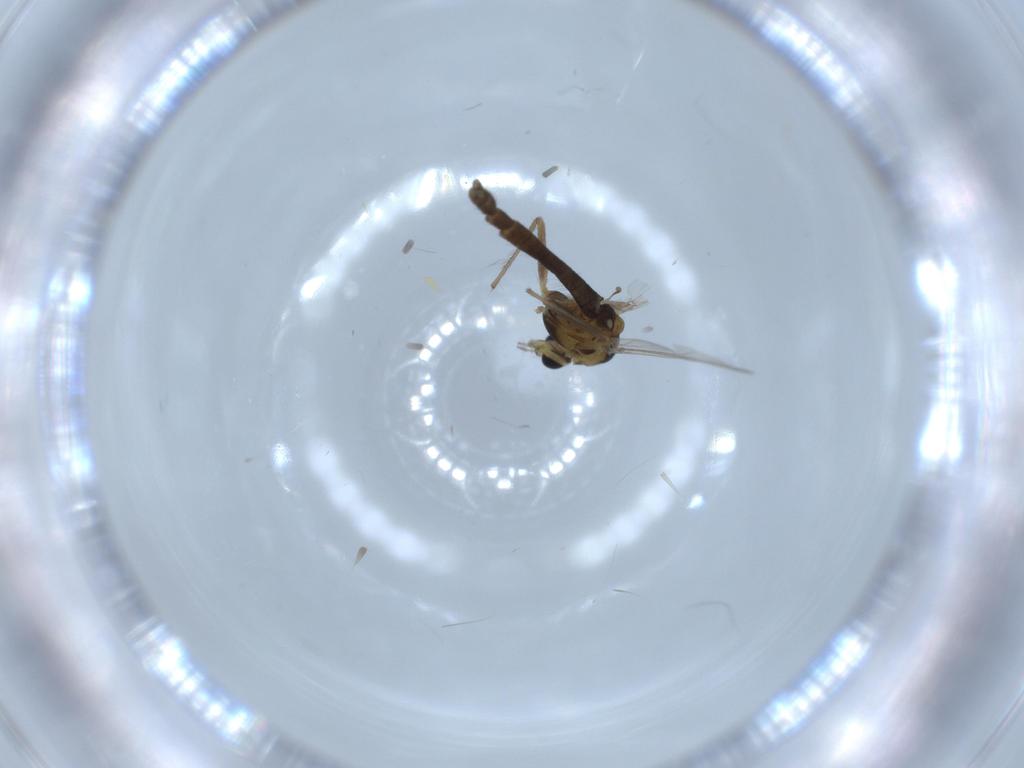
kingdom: Animalia
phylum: Arthropoda
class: Insecta
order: Diptera
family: Chironomidae
